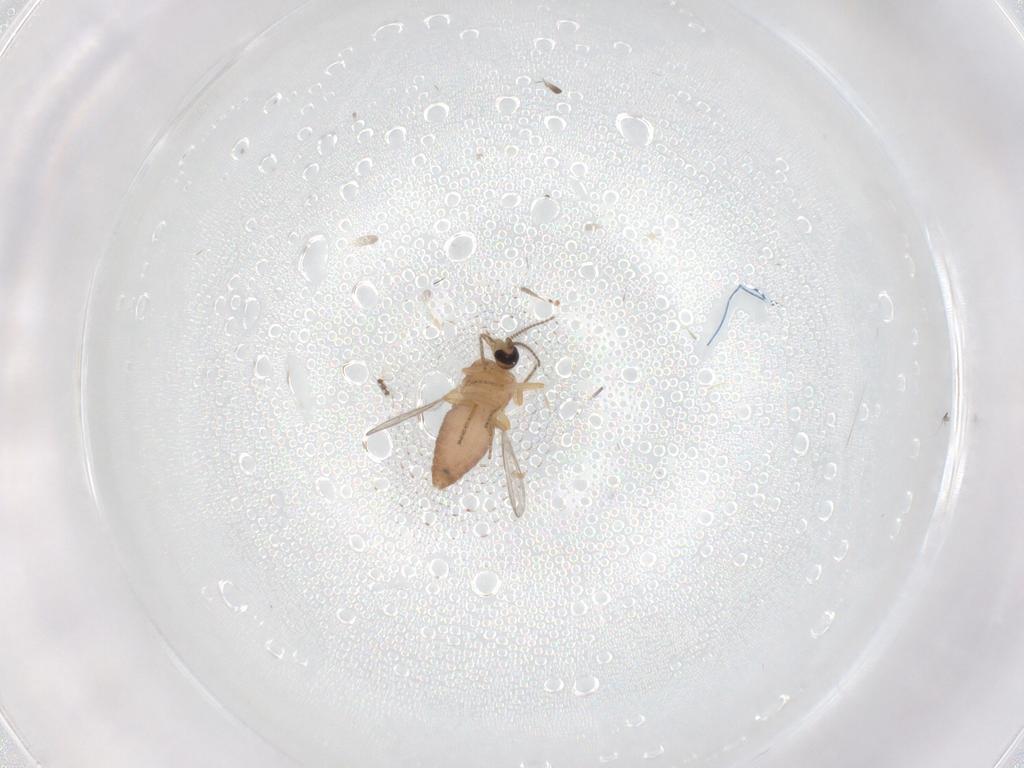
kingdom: Animalia
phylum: Arthropoda
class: Insecta
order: Diptera
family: Ceratopogonidae
